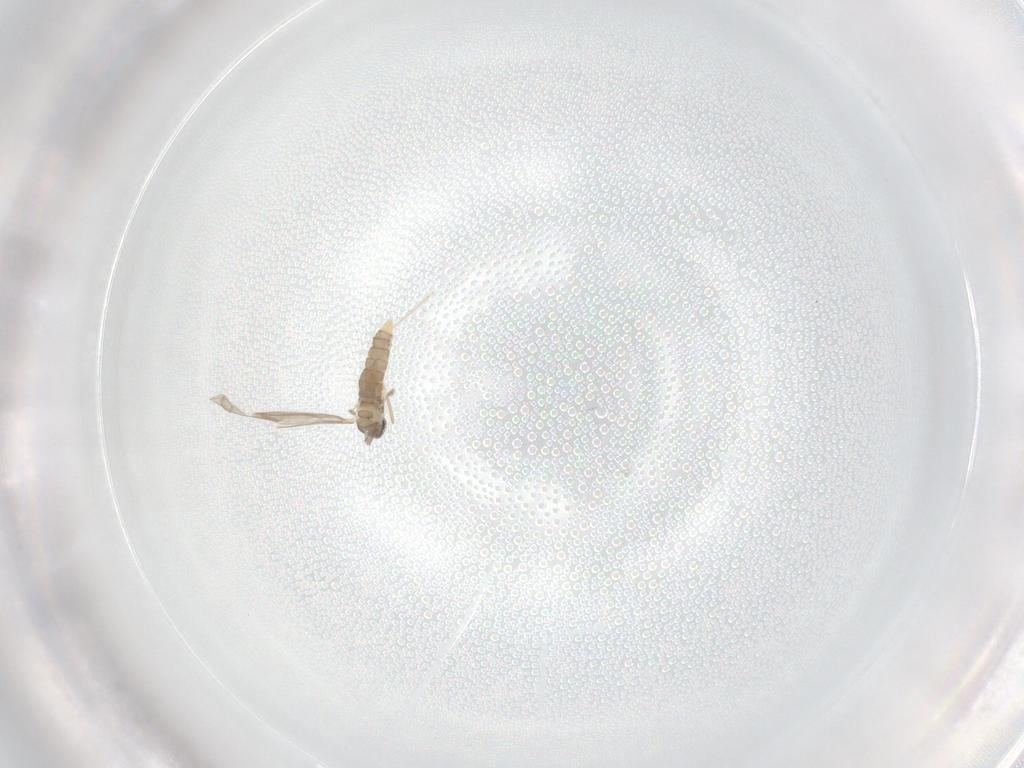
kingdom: Animalia
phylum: Arthropoda
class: Insecta
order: Diptera
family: Cecidomyiidae
